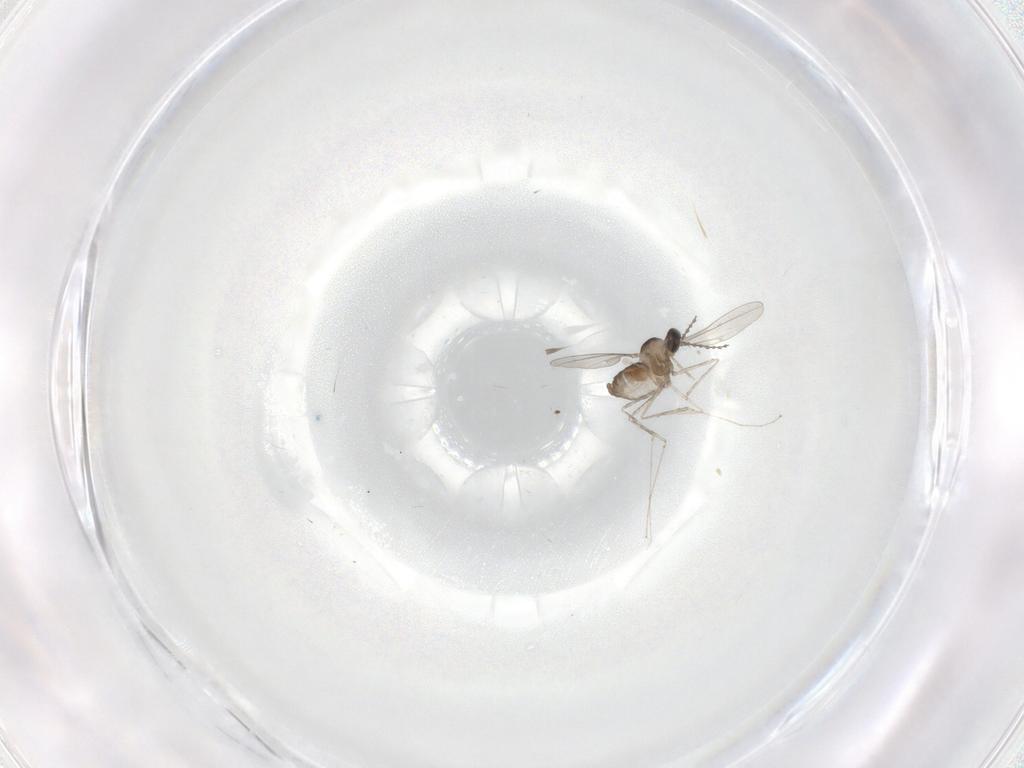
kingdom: Animalia
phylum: Arthropoda
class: Insecta
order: Diptera
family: Cecidomyiidae
